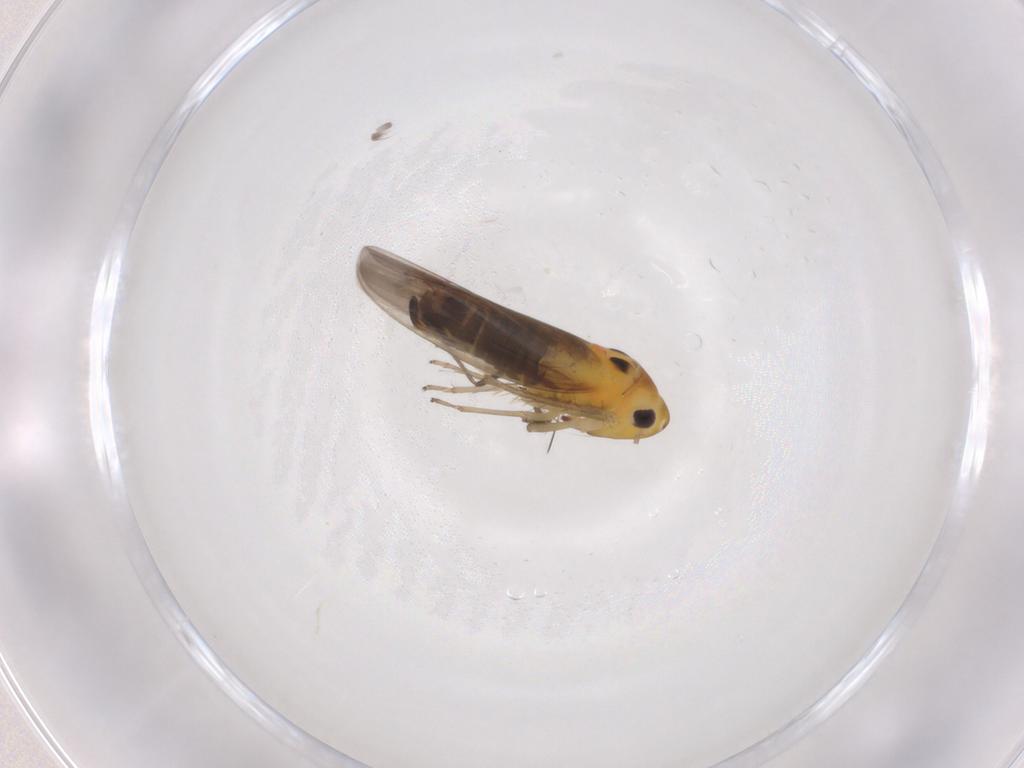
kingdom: Animalia
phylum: Arthropoda
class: Insecta
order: Hemiptera
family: Cicadellidae
